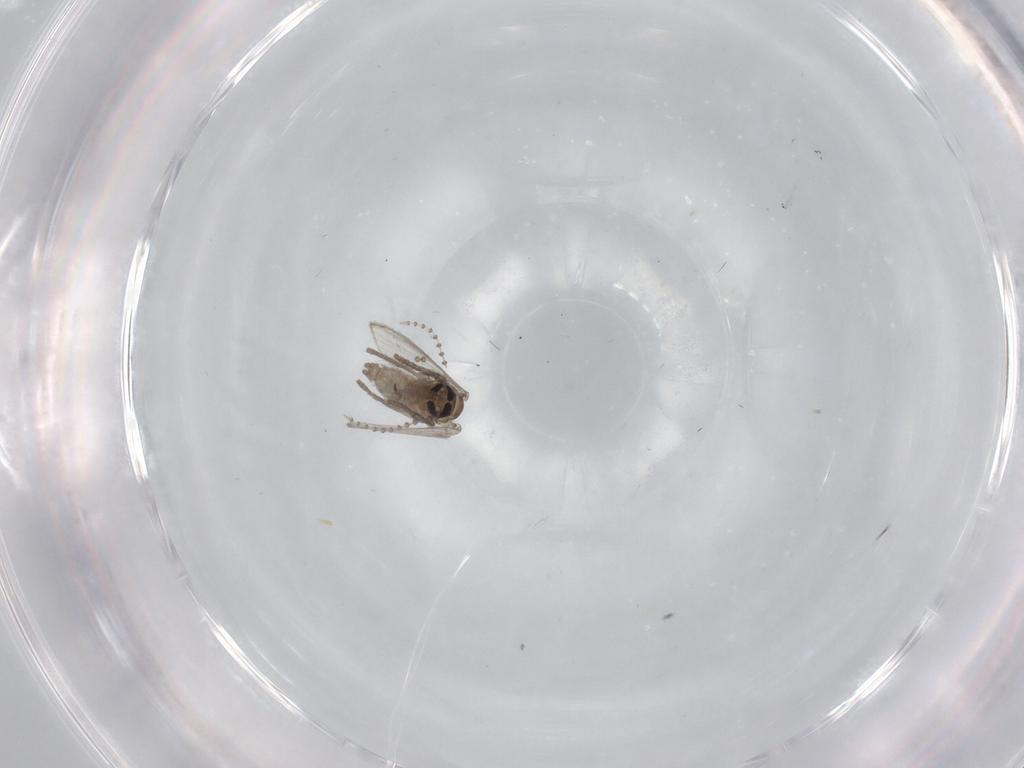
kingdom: Animalia
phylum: Arthropoda
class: Insecta
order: Diptera
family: Psychodidae
